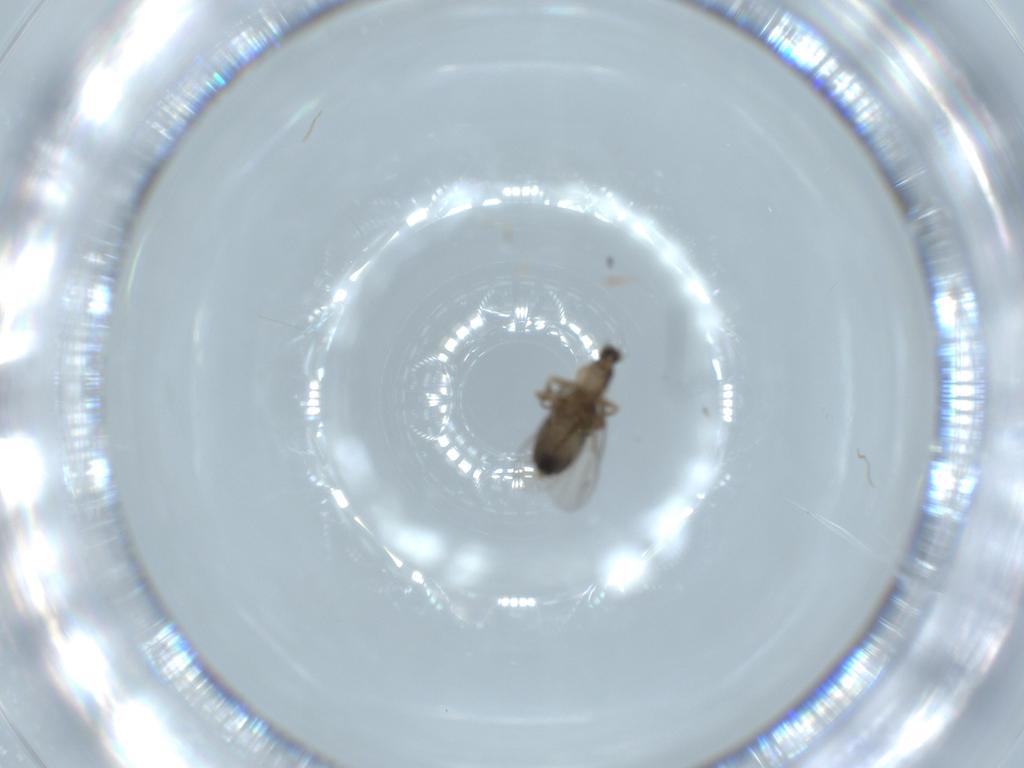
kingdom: Animalia
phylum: Arthropoda
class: Insecta
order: Diptera
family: Phoridae
